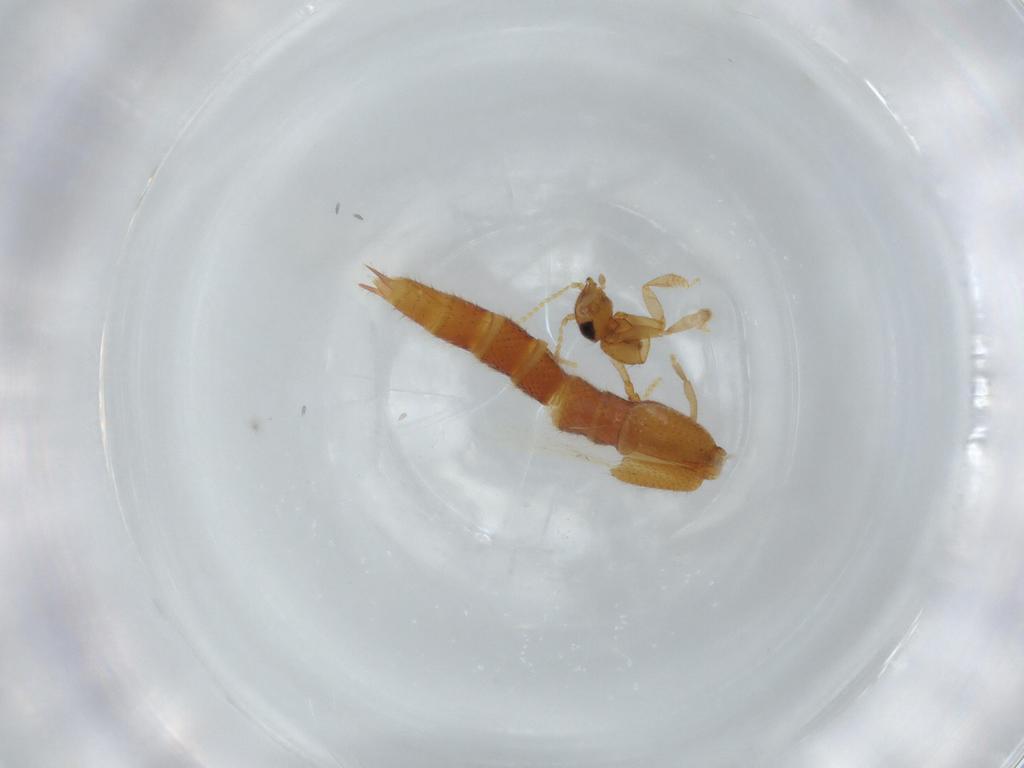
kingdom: Animalia
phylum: Arthropoda
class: Insecta
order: Coleoptera
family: Staphylinidae
